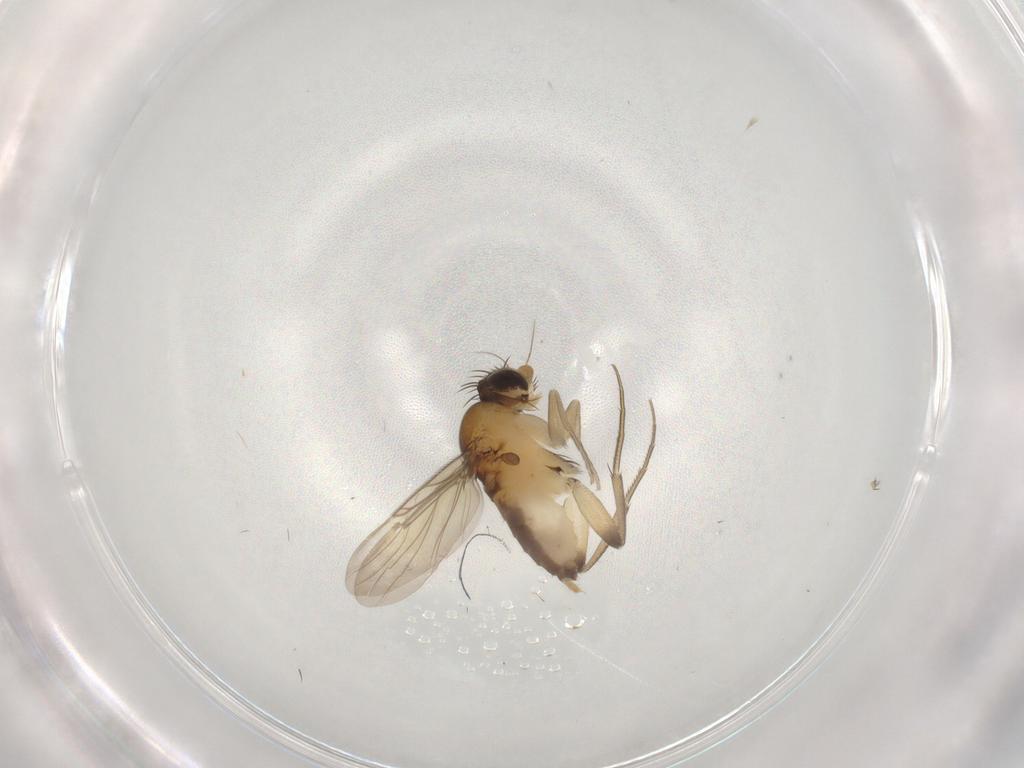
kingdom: Animalia
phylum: Arthropoda
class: Insecta
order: Diptera
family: Phoridae
